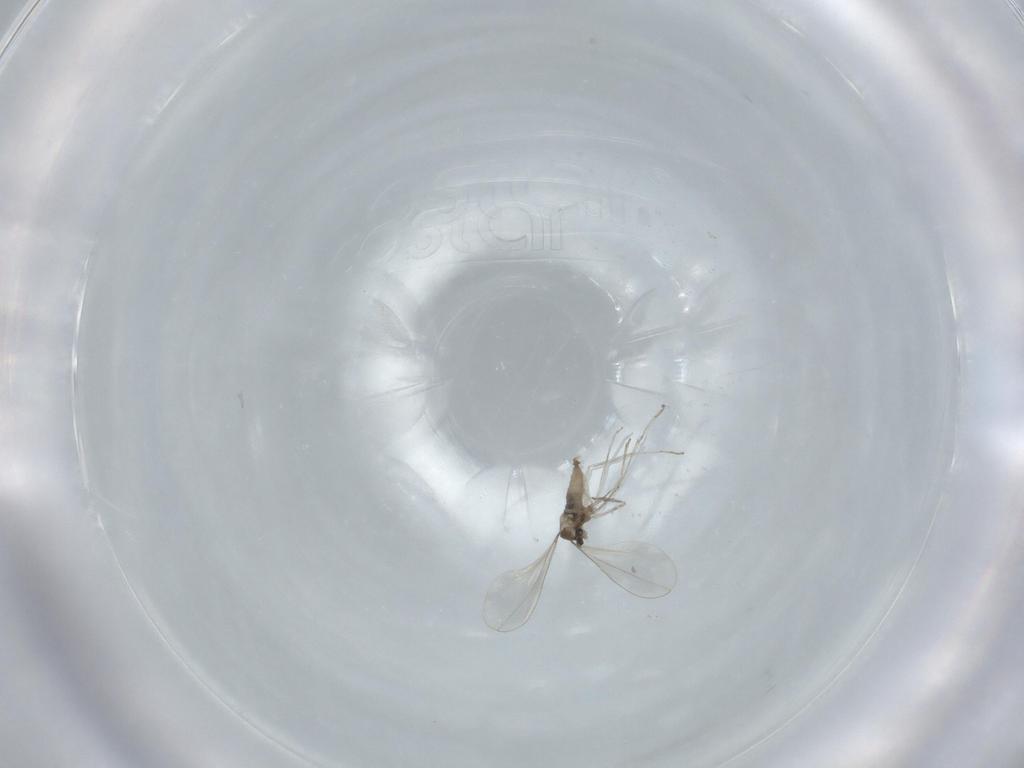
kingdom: Animalia
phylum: Arthropoda
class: Insecta
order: Diptera
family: Cecidomyiidae
